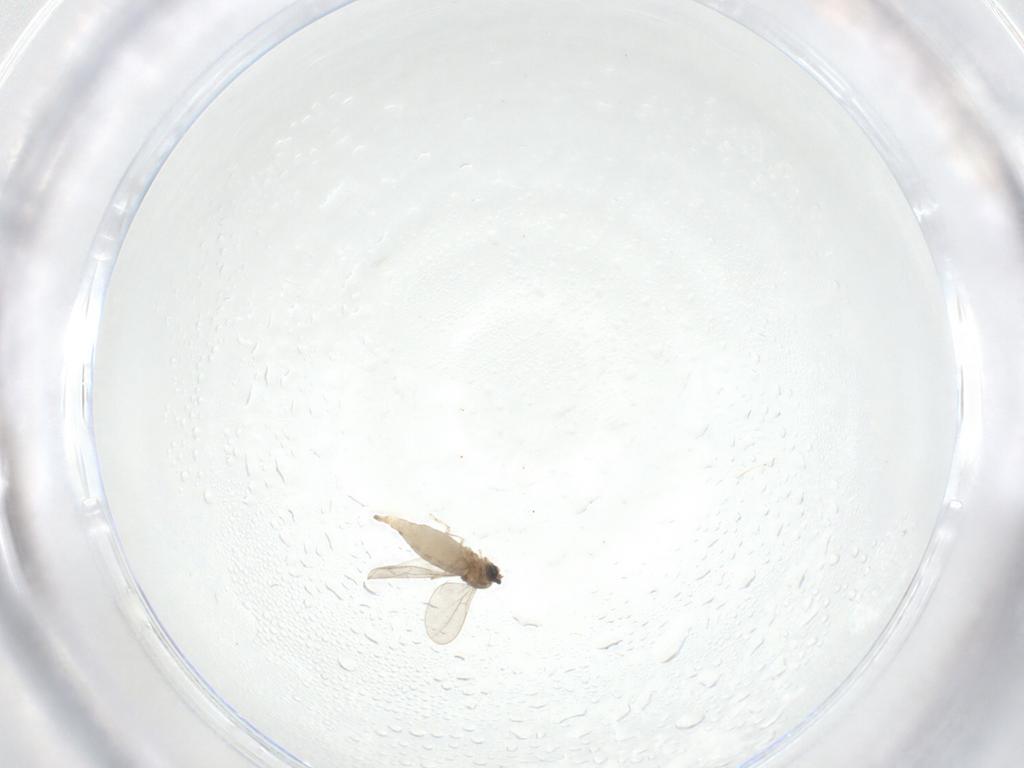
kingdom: Animalia
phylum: Arthropoda
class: Insecta
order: Diptera
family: Cecidomyiidae
